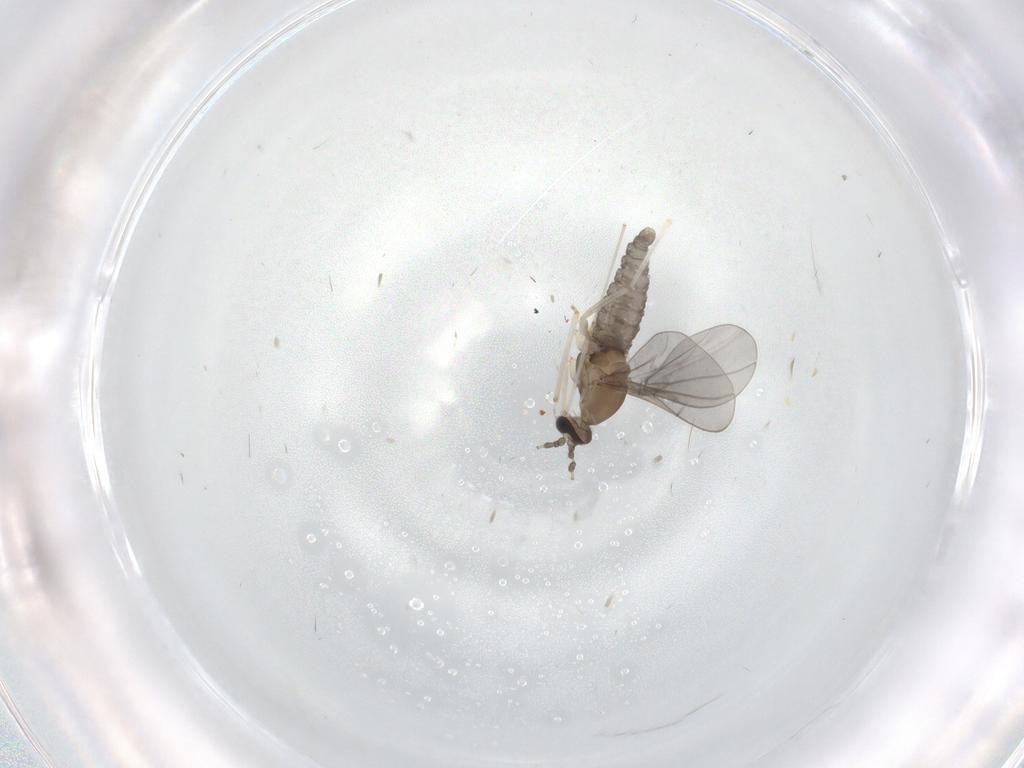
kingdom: Animalia
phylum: Arthropoda
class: Insecta
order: Diptera
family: Cecidomyiidae
